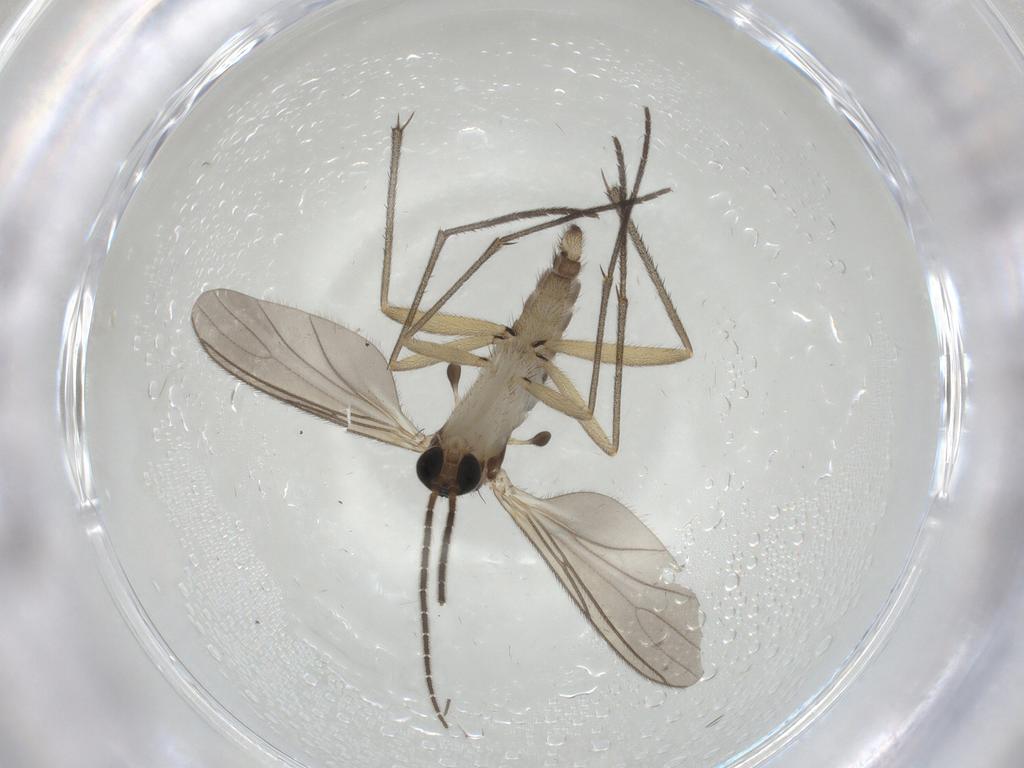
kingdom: Animalia
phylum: Arthropoda
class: Insecta
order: Diptera
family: Sciaridae
